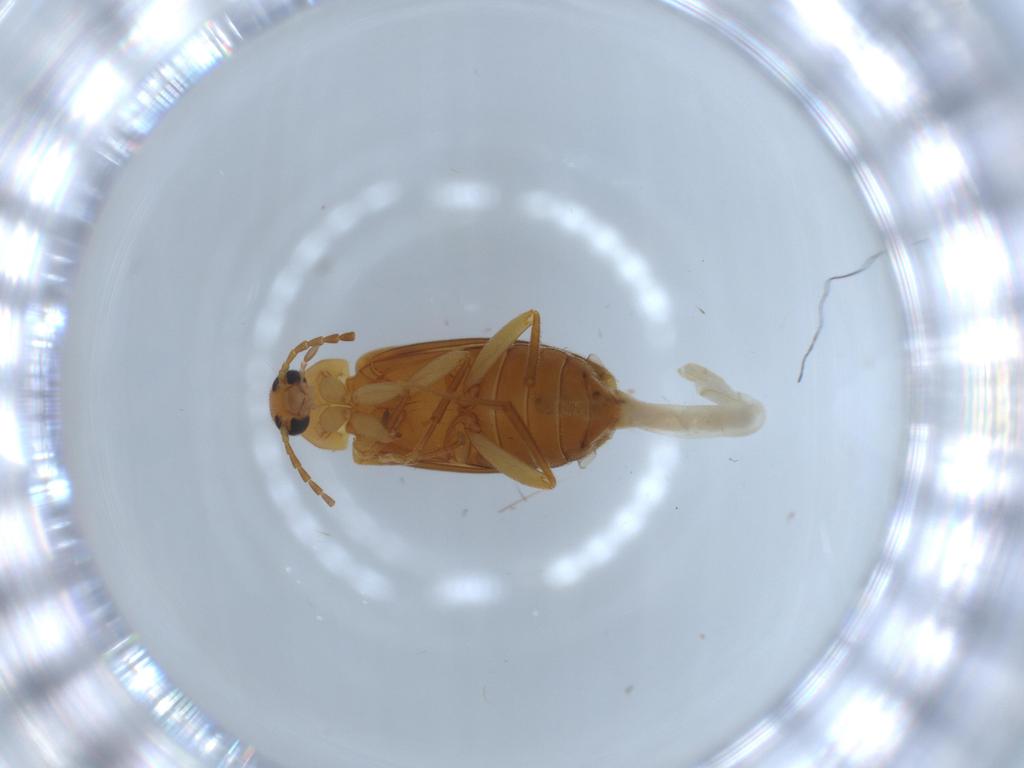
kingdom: Animalia
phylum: Arthropoda
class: Insecta
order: Coleoptera
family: Scraptiidae
